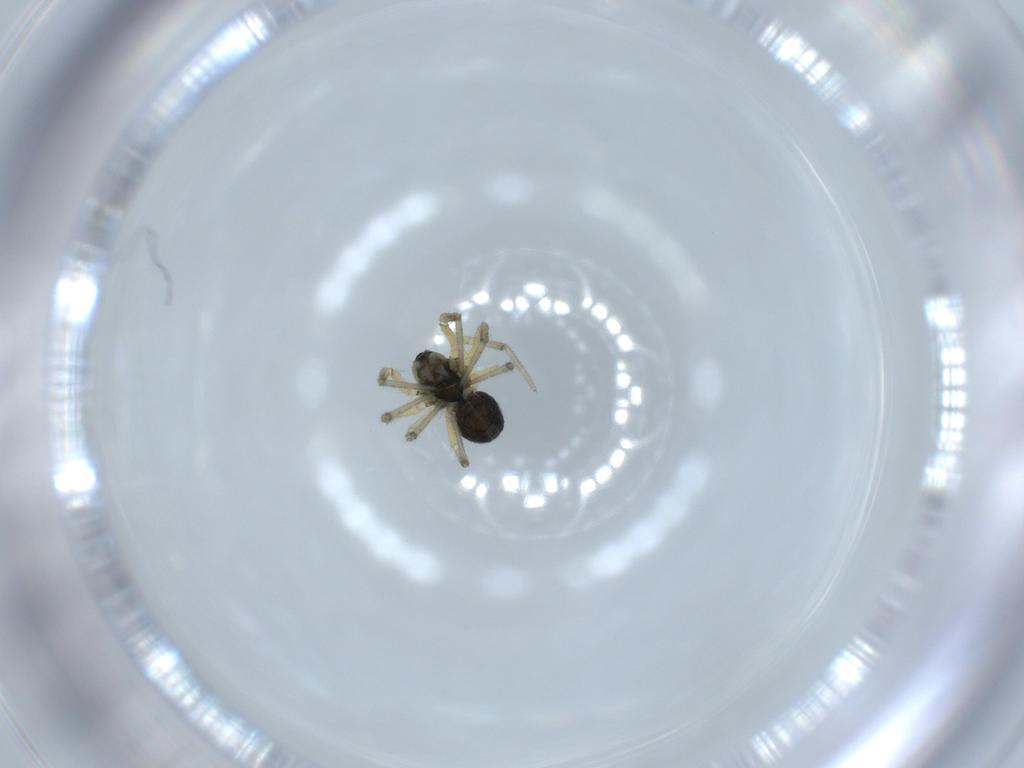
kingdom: Animalia
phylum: Arthropoda
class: Arachnida
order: Araneae
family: Linyphiidae
